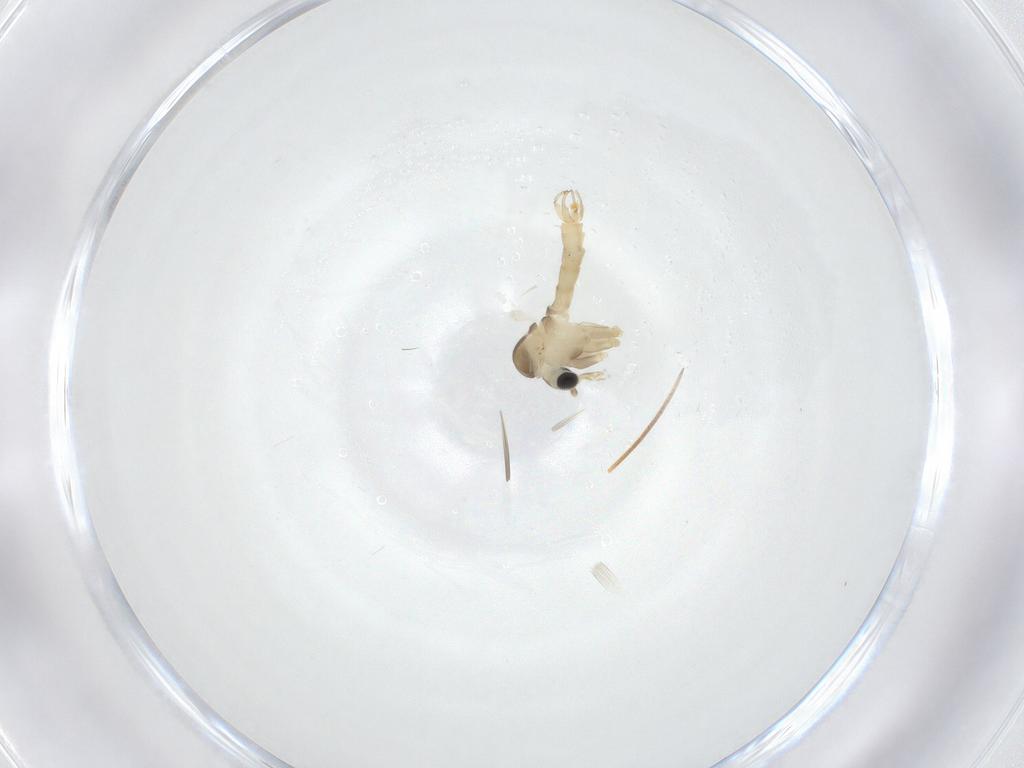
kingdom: Animalia
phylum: Arthropoda
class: Insecta
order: Diptera
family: Psychodidae
